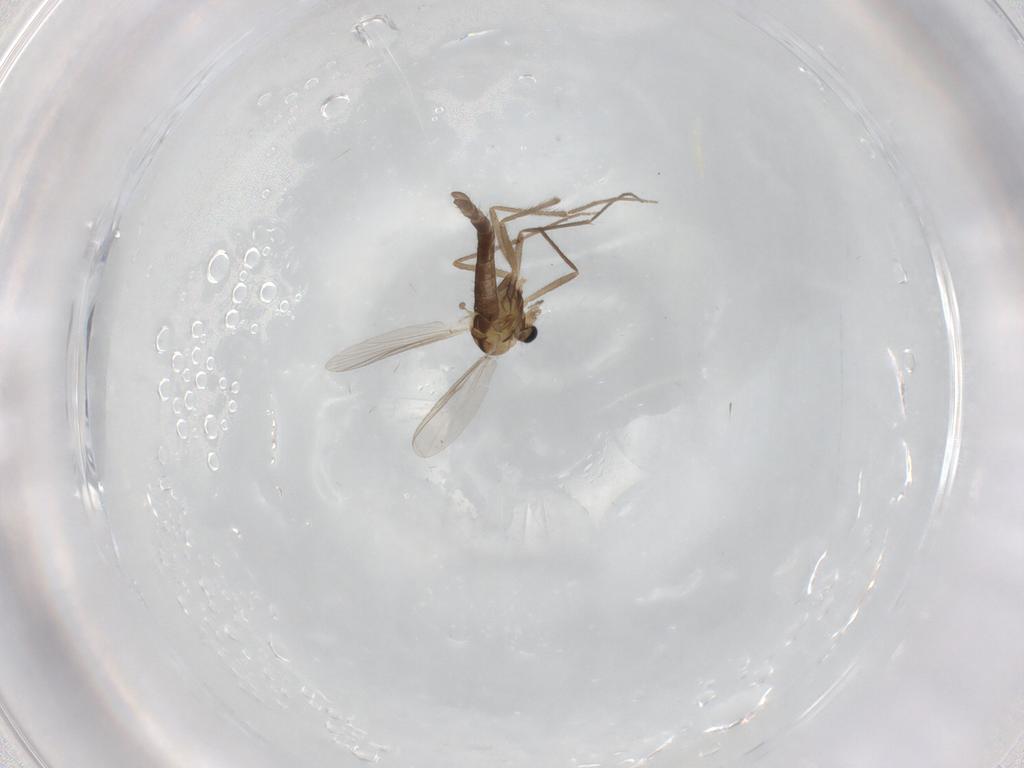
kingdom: Animalia
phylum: Arthropoda
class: Insecta
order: Diptera
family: Chironomidae
